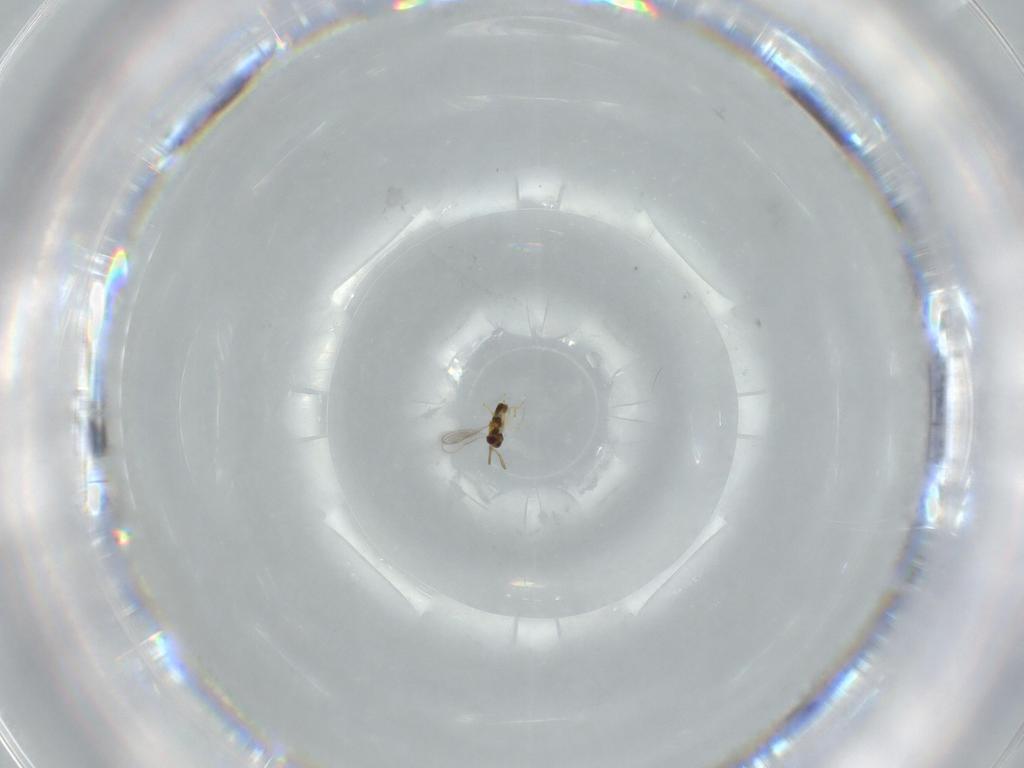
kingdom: Animalia
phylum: Arthropoda
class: Insecta
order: Hymenoptera
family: Aphelinidae
